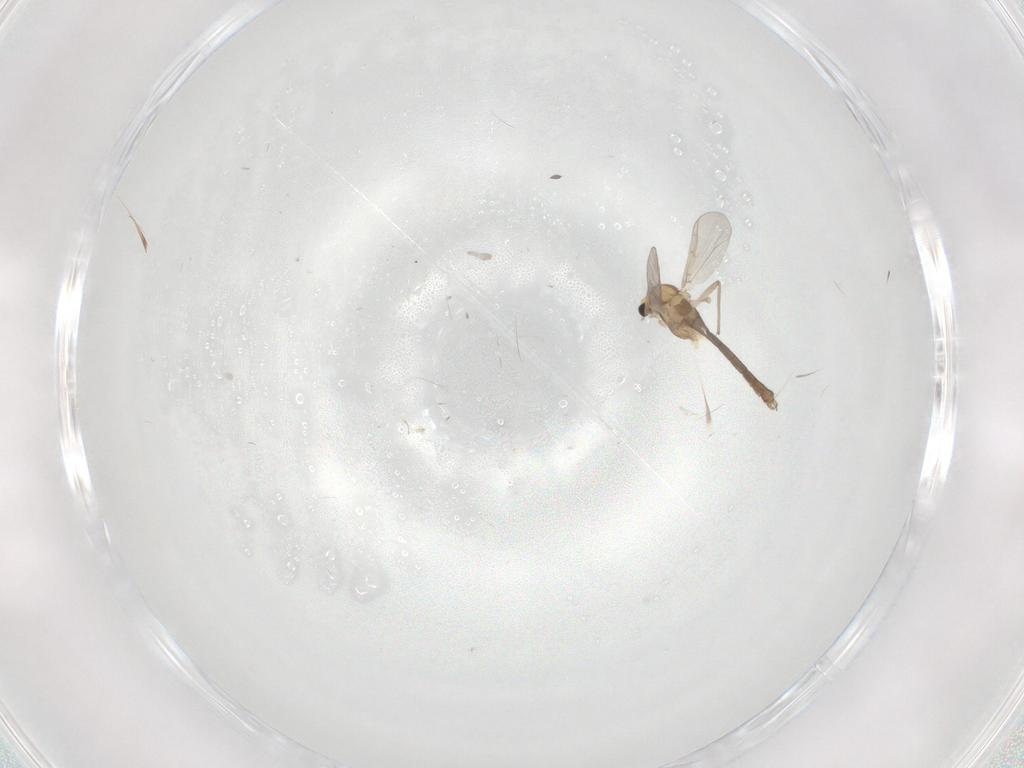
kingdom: Animalia
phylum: Arthropoda
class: Insecta
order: Diptera
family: Chironomidae
